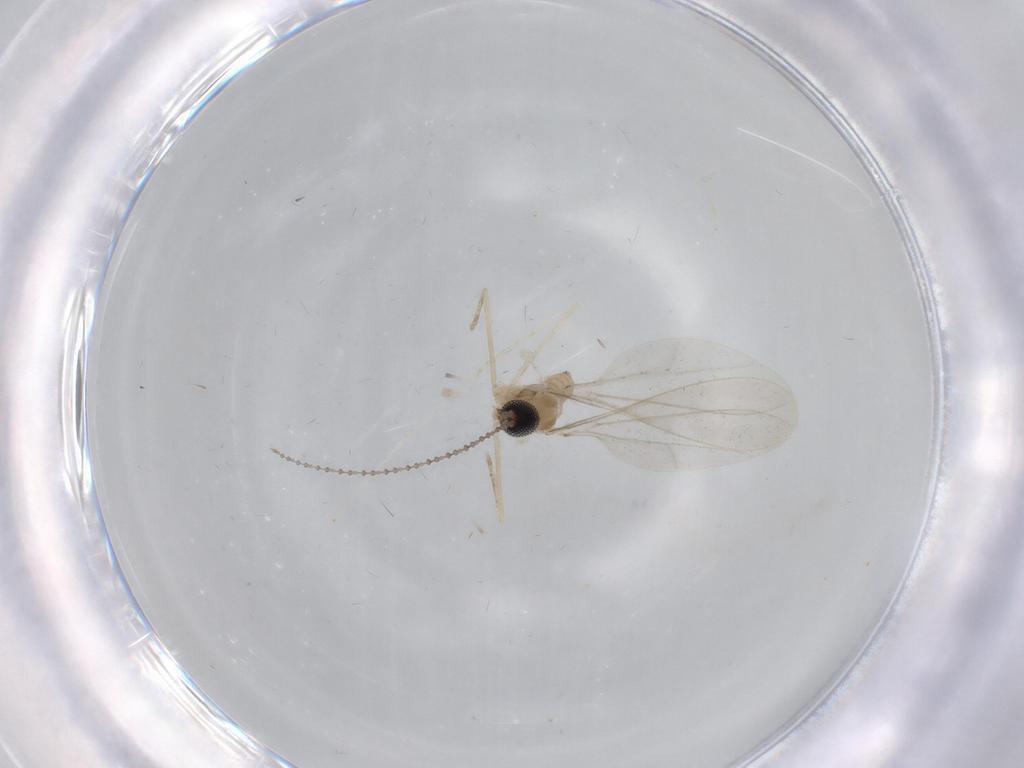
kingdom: Animalia
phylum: Arthropoda
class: Insecta
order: Diptera
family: Cecidomyiidae
